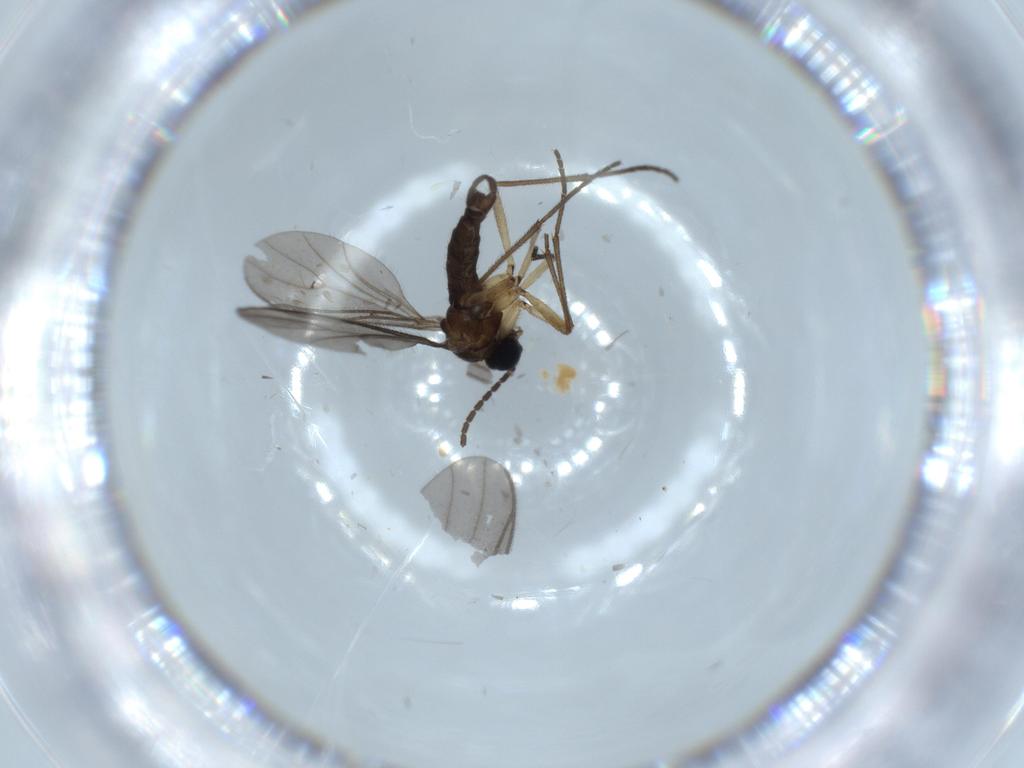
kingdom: Animalia
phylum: Arthropoda
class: Insecta
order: Diptera
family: Sciaridae
